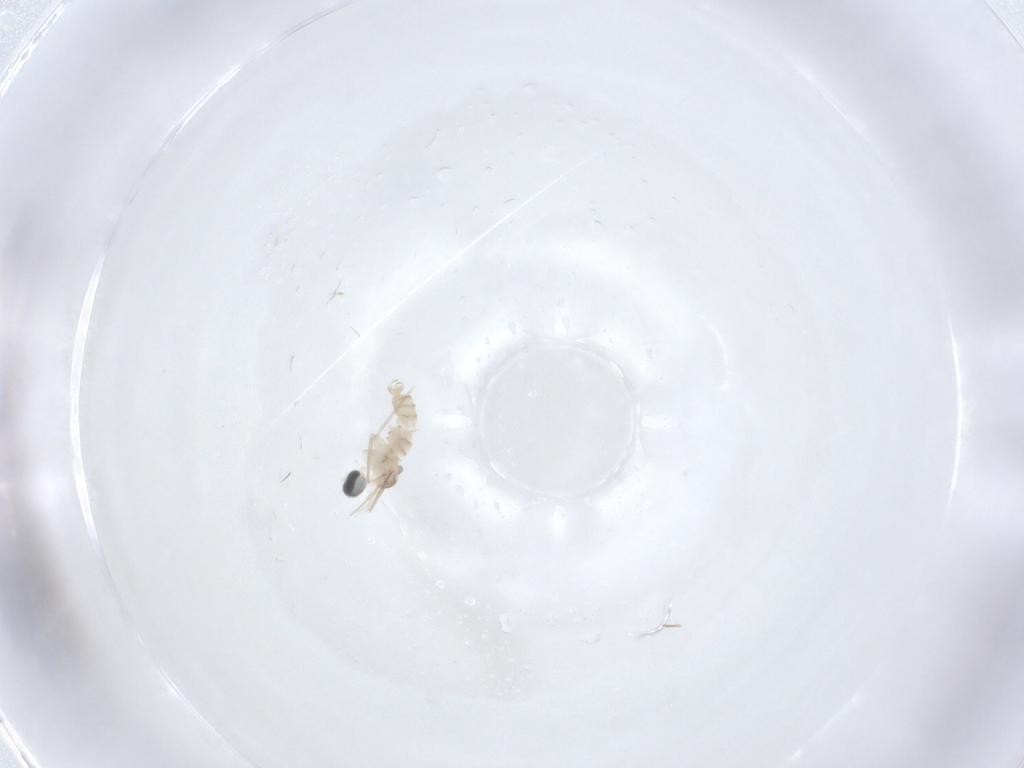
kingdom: Animalia
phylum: Arthropoda
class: Insecta
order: Diptera
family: Cecidomyiidae
